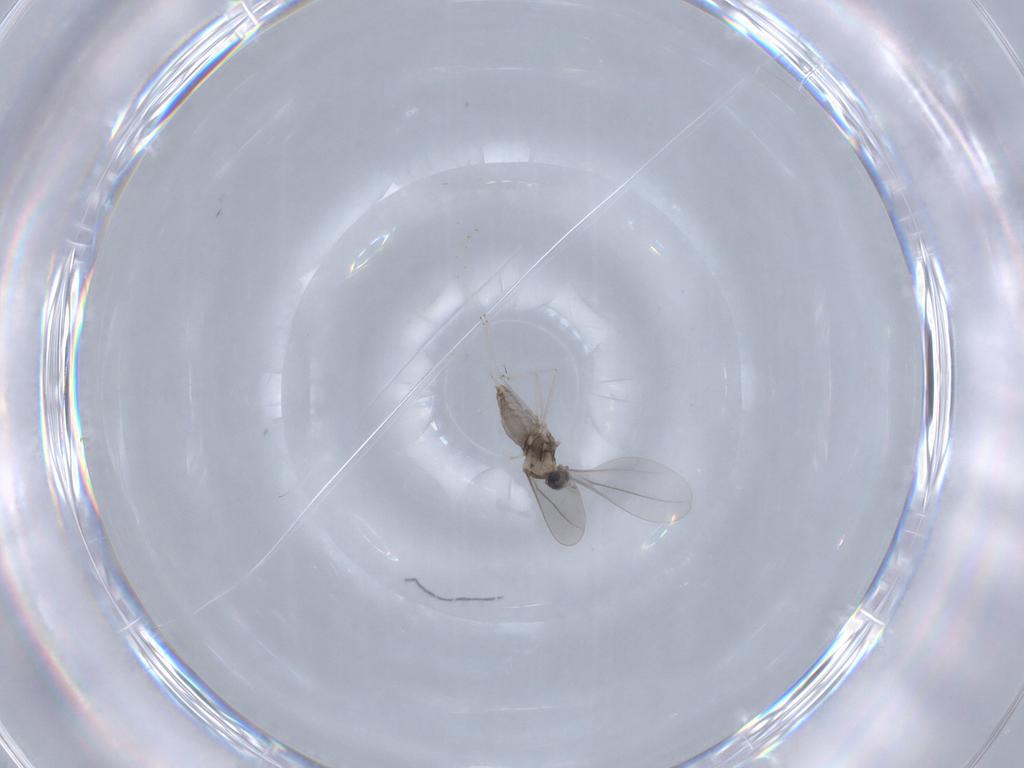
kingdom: Animalia
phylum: Arthropoda
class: Insecta
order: Diptera
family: Cecidomyiidae
